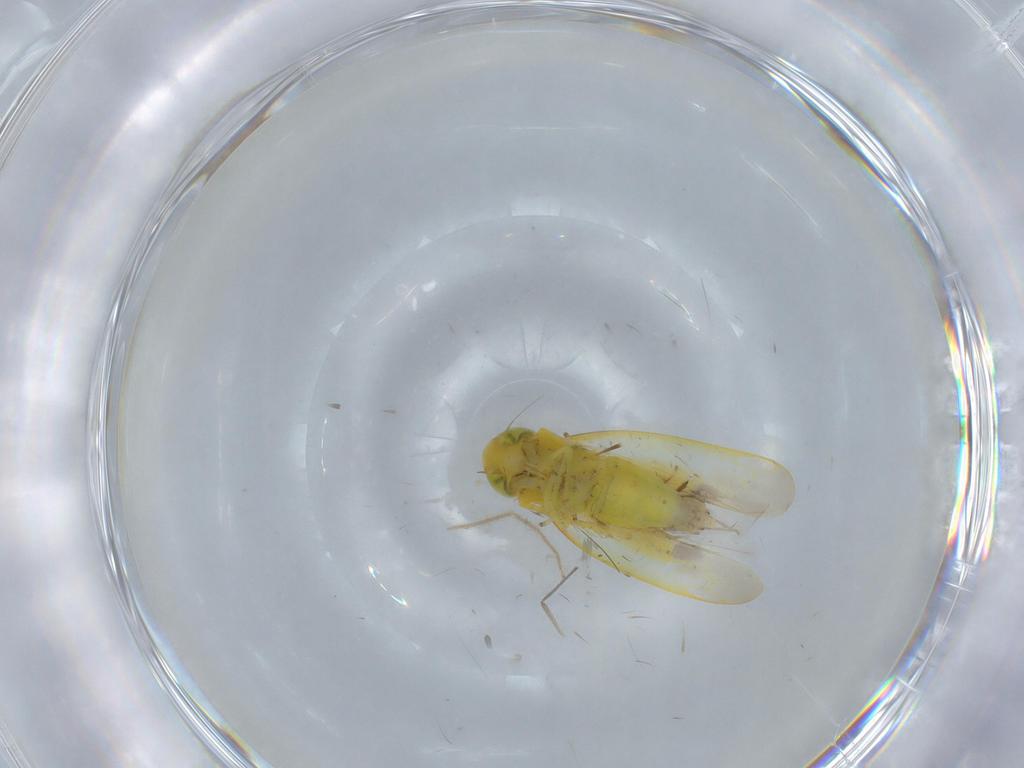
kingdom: Animalia
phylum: Arthropoda
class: Insecta
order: Hemiptera
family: Cicadellidae
